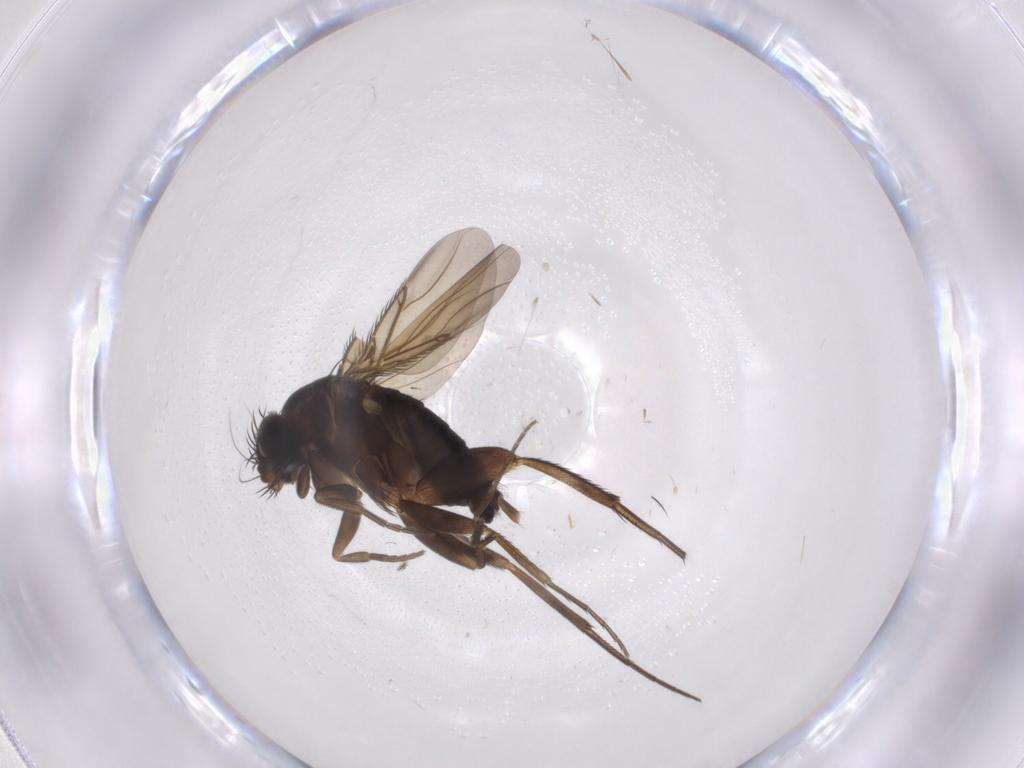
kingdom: Animalia
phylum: Arthropoda
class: Insecta
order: Diptera
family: Phoridae
